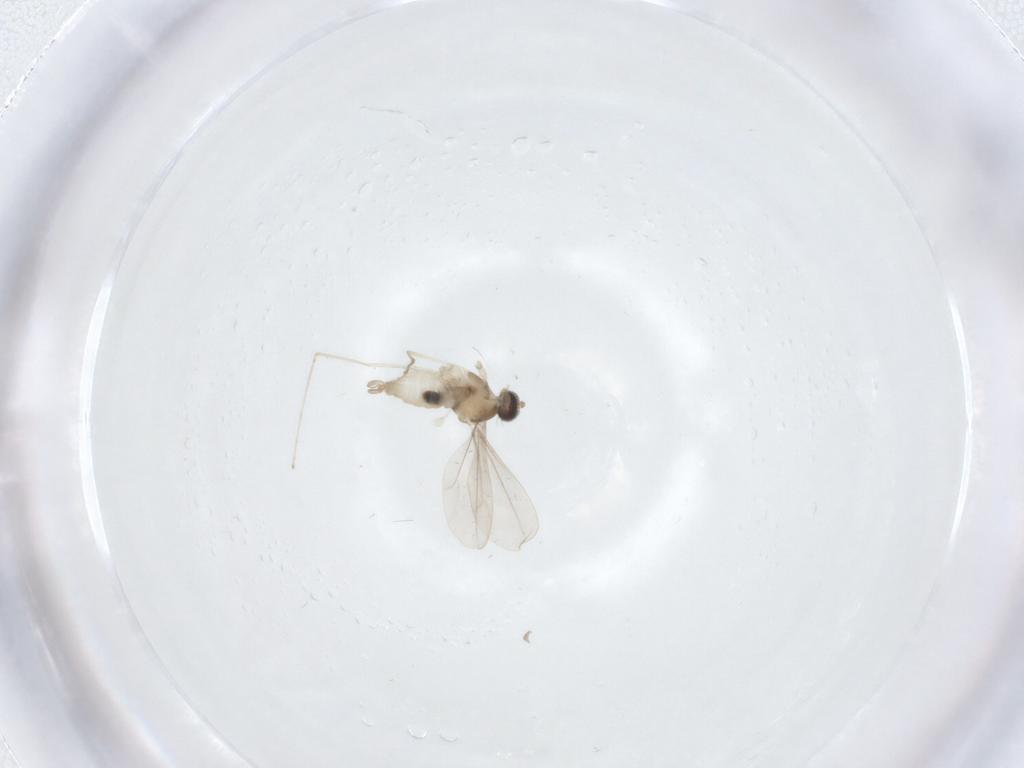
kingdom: Animalia
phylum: Arthropoda
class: Insecta
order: Diptera
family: Cecidomyiidae
